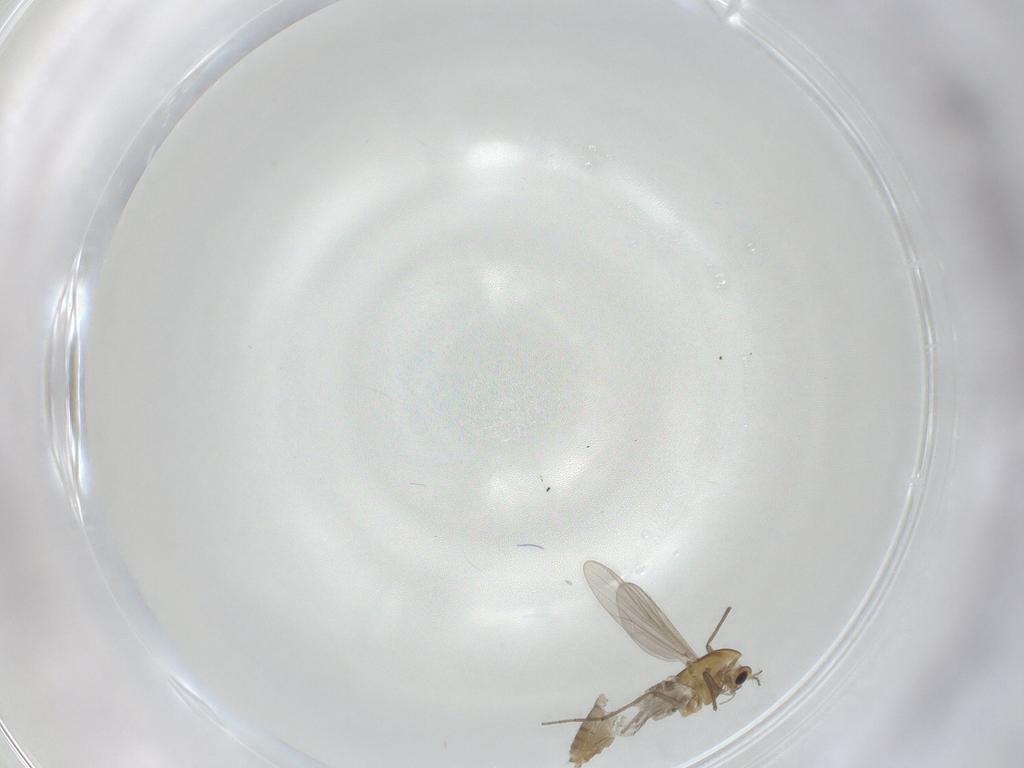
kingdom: Animalia
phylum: Arthropoda
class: Insecta
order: Diptera
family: Chironomidae
